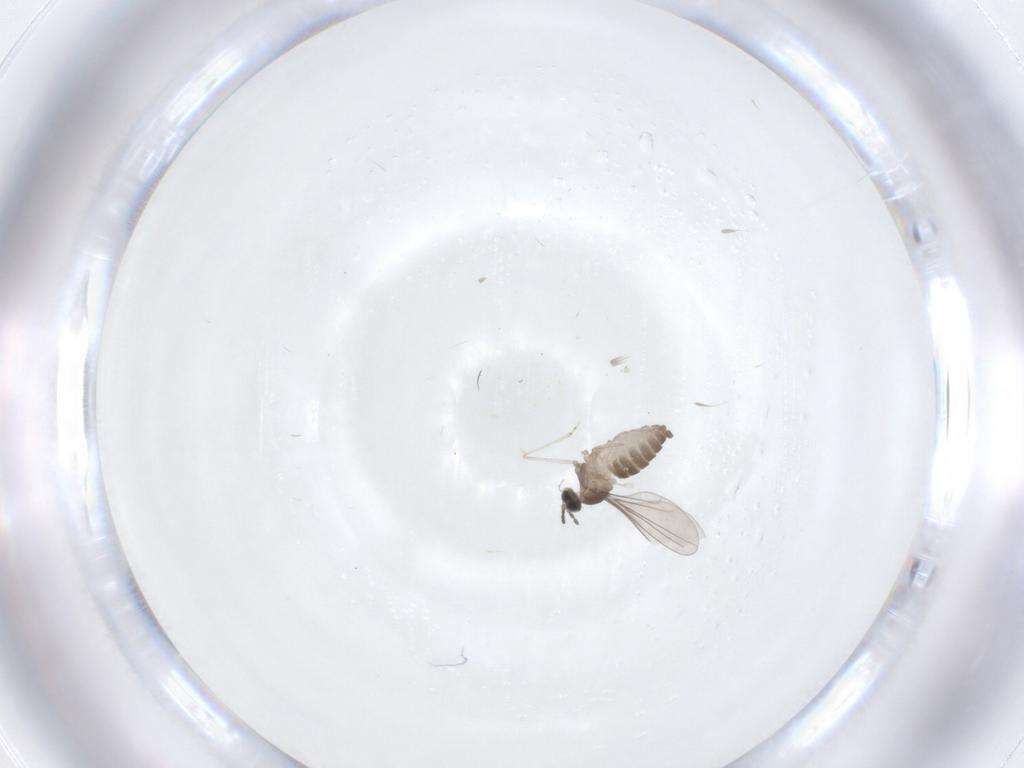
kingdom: Animalia
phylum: Arthropoda
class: Insecta
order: Diptera
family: Cecidomyiidae
